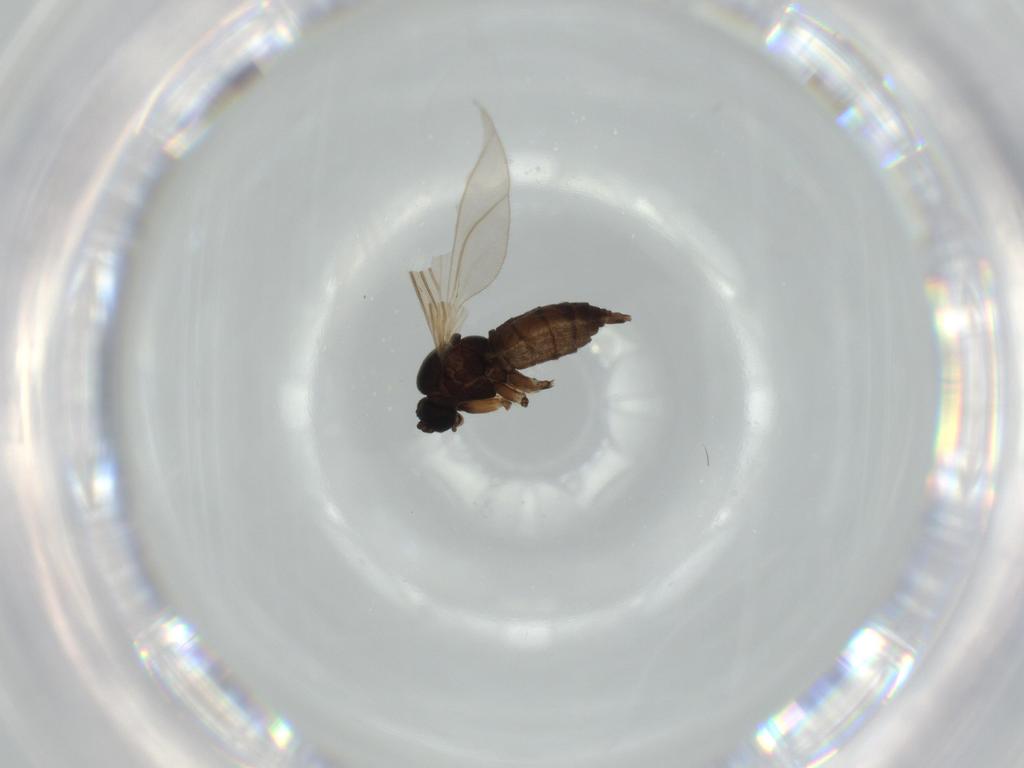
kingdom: Animalia
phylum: Arthropoda
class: Insecta
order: Diptera
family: Sciaridae
